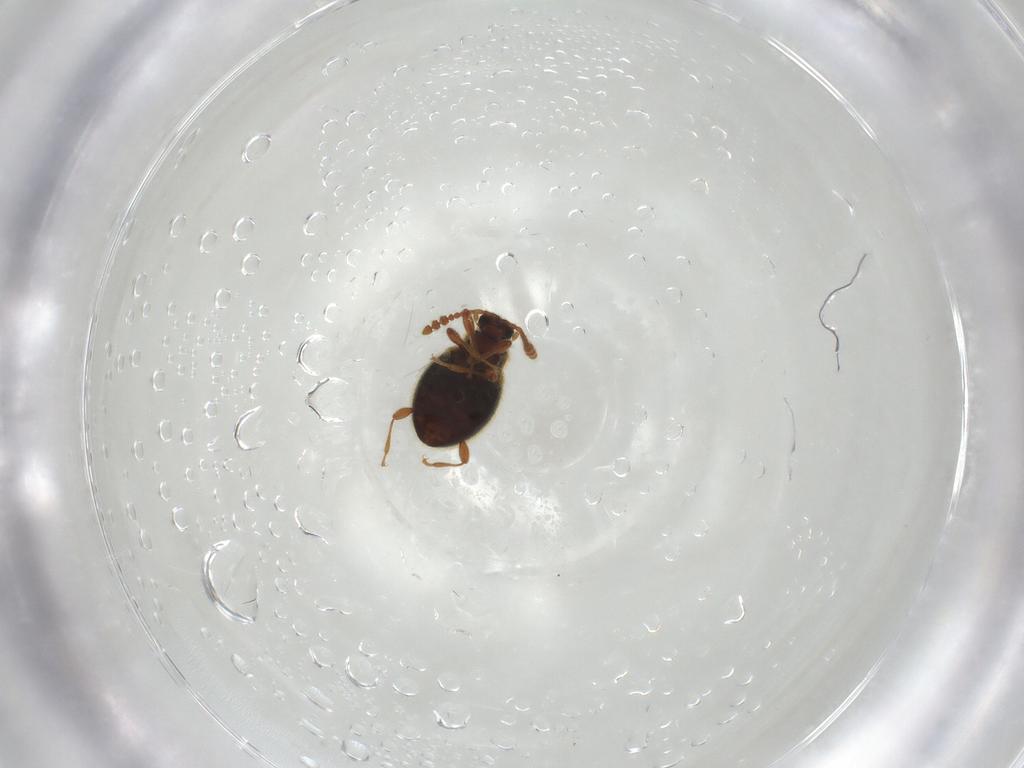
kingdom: Animalia
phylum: Arthropoda
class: Insecta
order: Coleoptera
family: Staphylinidae
